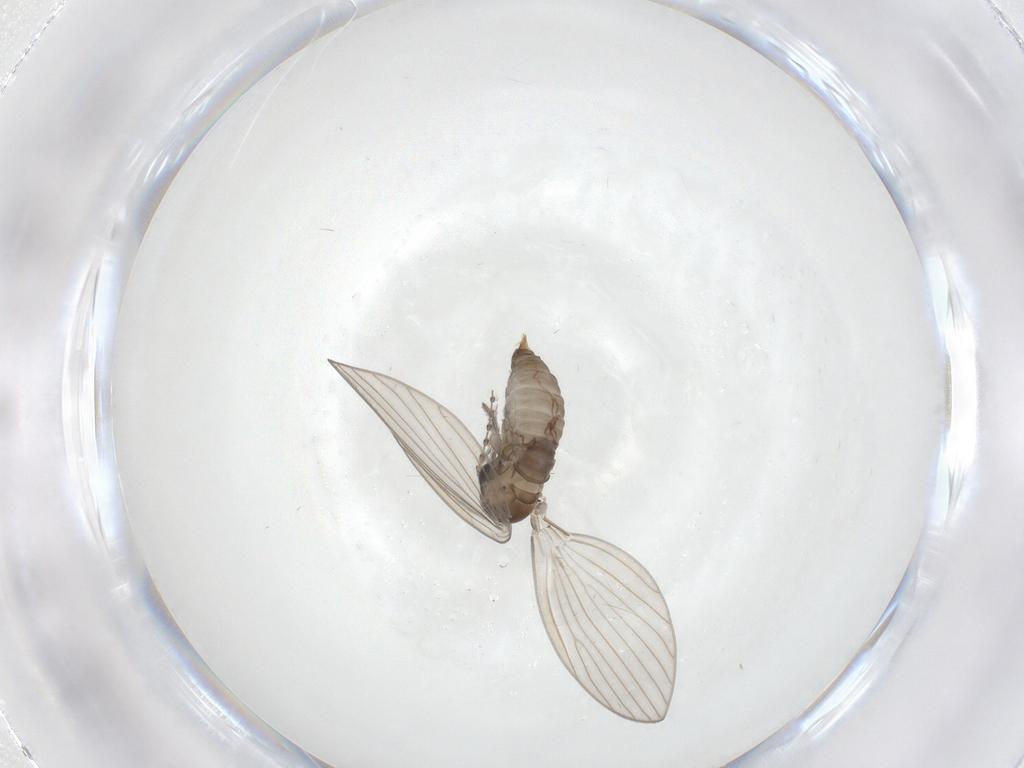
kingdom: Animalia
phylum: Arthropoda
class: Insecta
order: Diptera
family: Psychodidae
